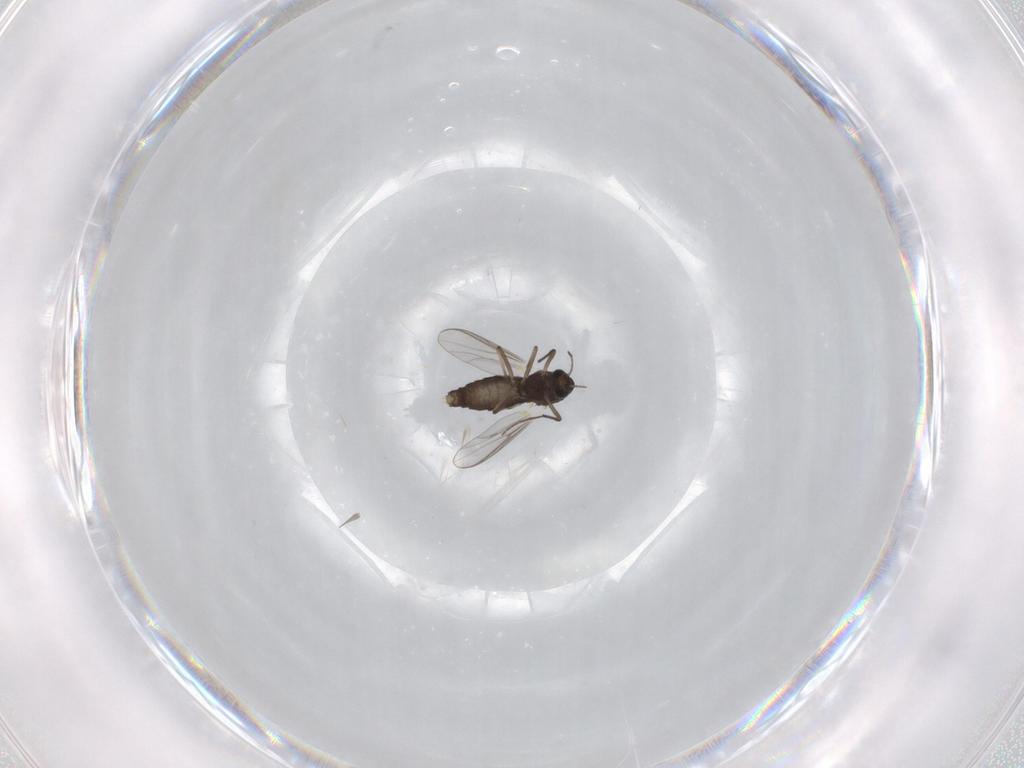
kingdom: Animalia
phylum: Arthropoda
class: Insecta
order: Diptera
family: Chironomidae
